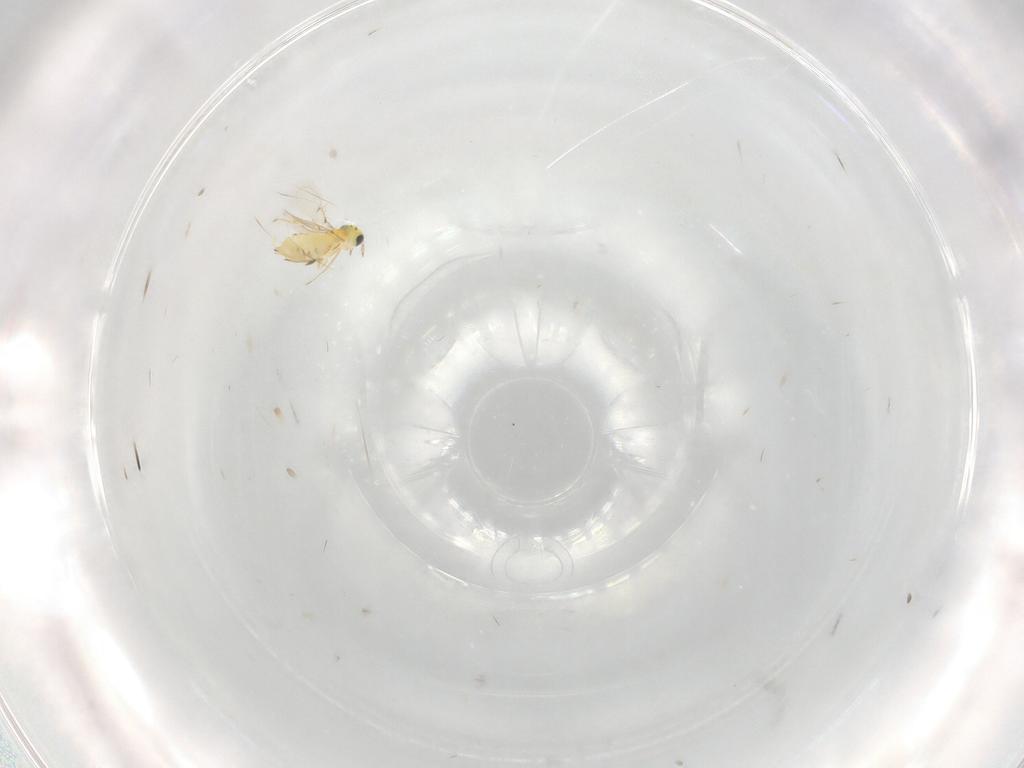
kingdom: Animalia
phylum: Arthropoda
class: Insecta
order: Hymenoptera
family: Trichogrammatidae
